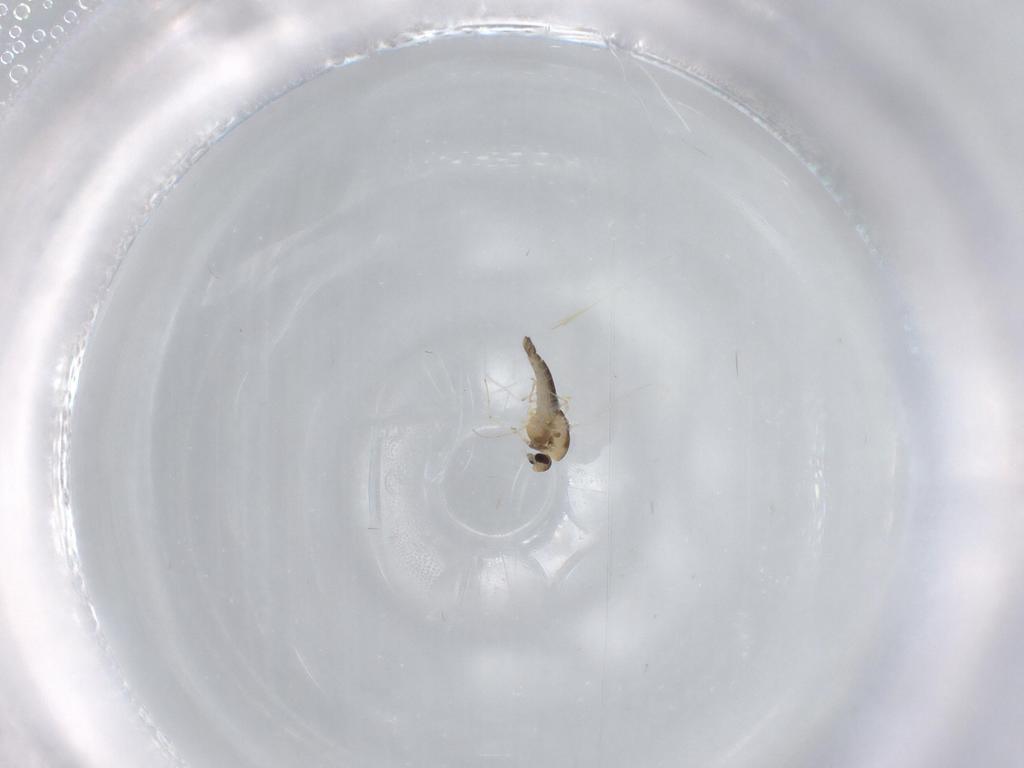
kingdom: Animalia
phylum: Arthropoda
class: Insecta
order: Diptera
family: Chironomidae
